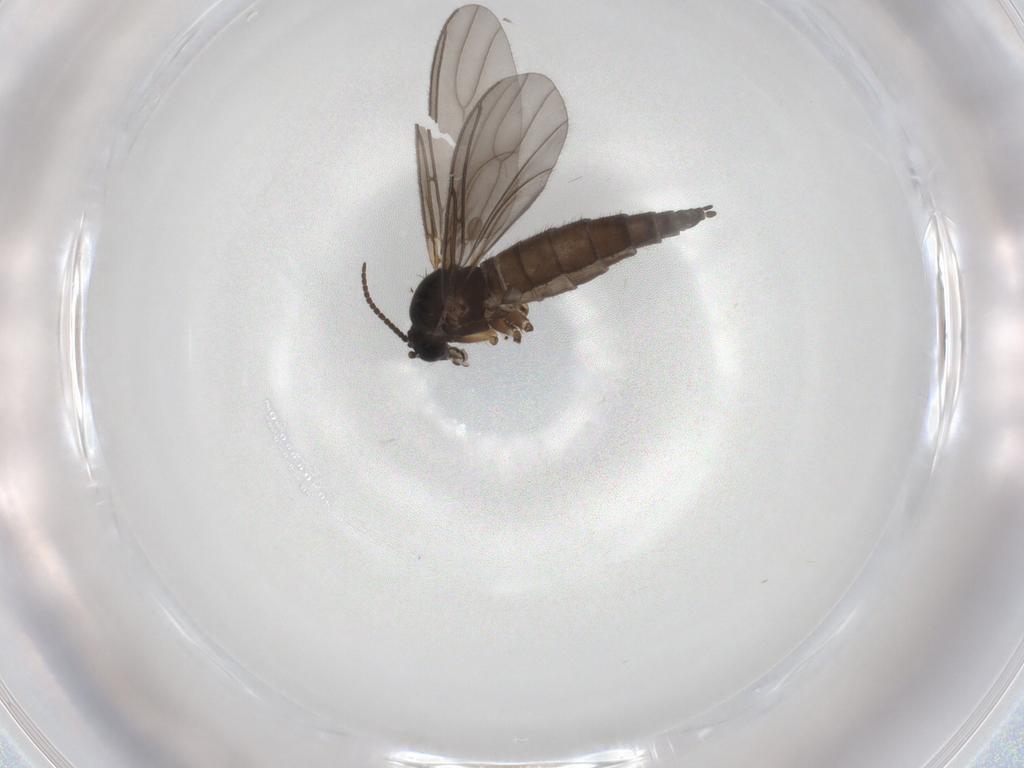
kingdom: Animalia
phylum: Arthropoda
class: Insecta
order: Diptera
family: Sciaridae
